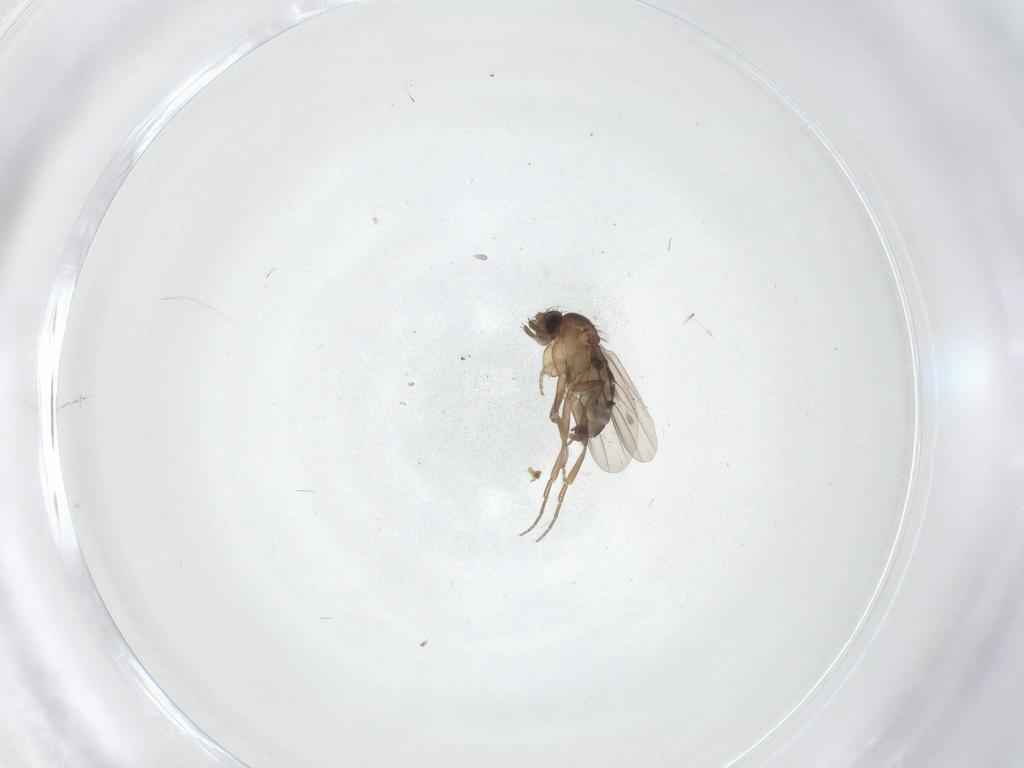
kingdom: Animalia
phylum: Arthropoda
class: Insecta
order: Diptera
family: Phoridae
